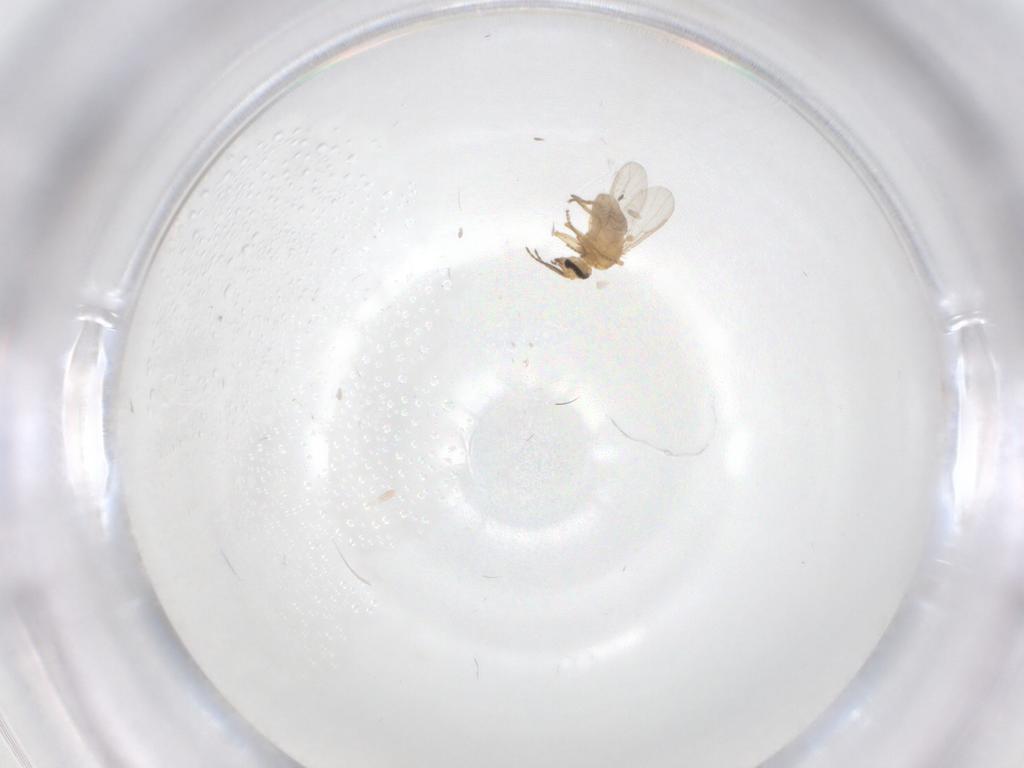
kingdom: Animalia
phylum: Arthropoda
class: Insecta
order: Diptera
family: Ceratopogonidae
